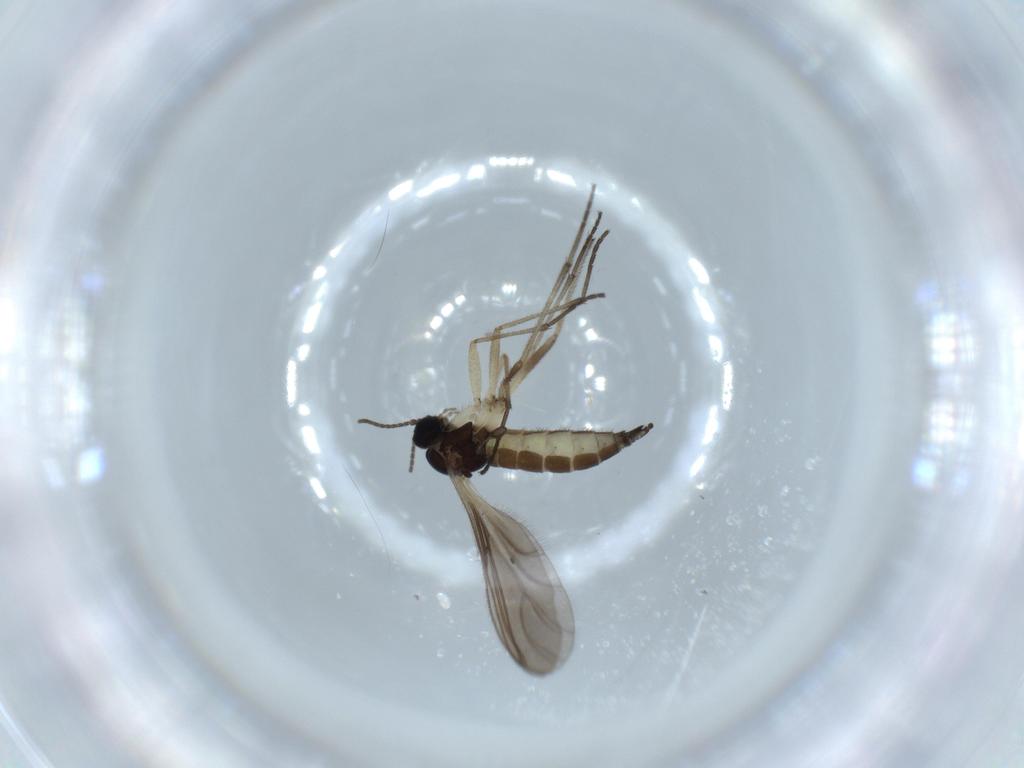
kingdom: Animalia
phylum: Arthropoda
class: Insecta
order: Diptera
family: Sciaridae
